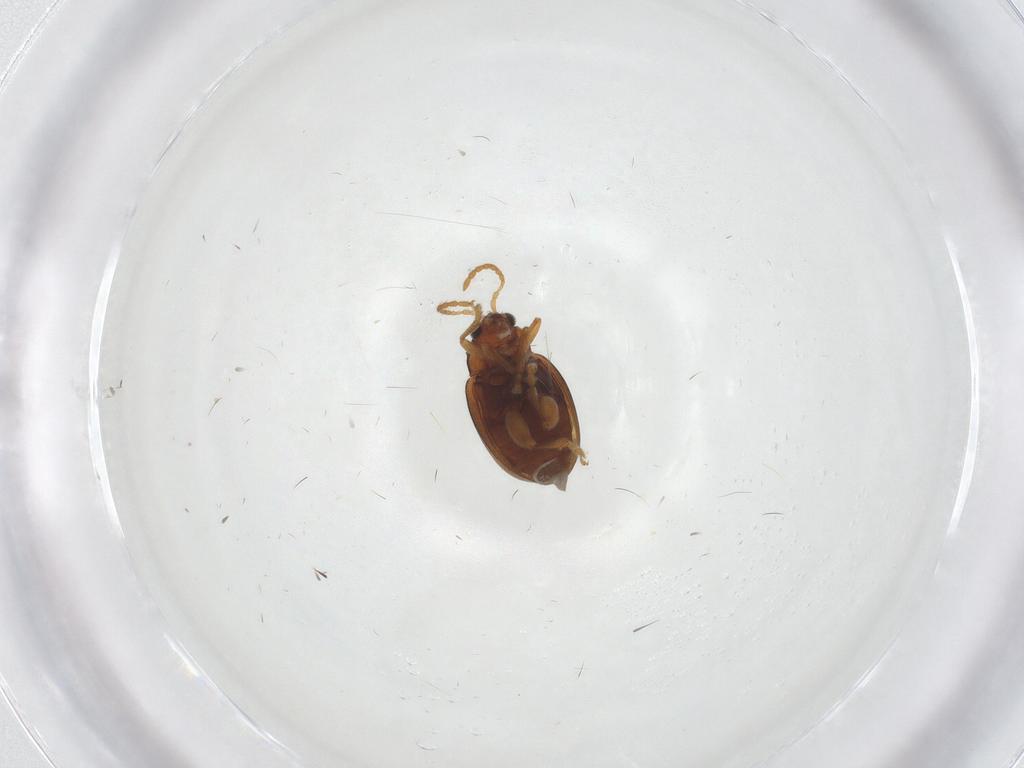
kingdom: Animalia
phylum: Arthropoda
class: Insecta
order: Coleoptera
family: Chrysomelidae
